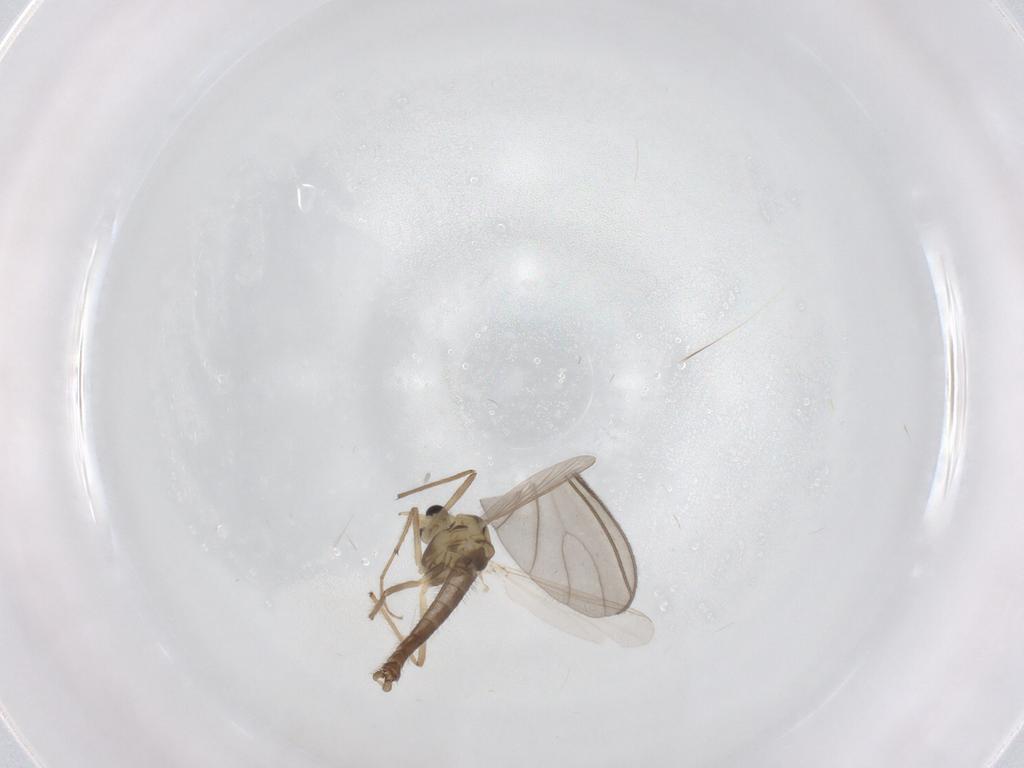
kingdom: Animalia
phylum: Arthropoda
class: Insecta
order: Diptera
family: Chironomidae
